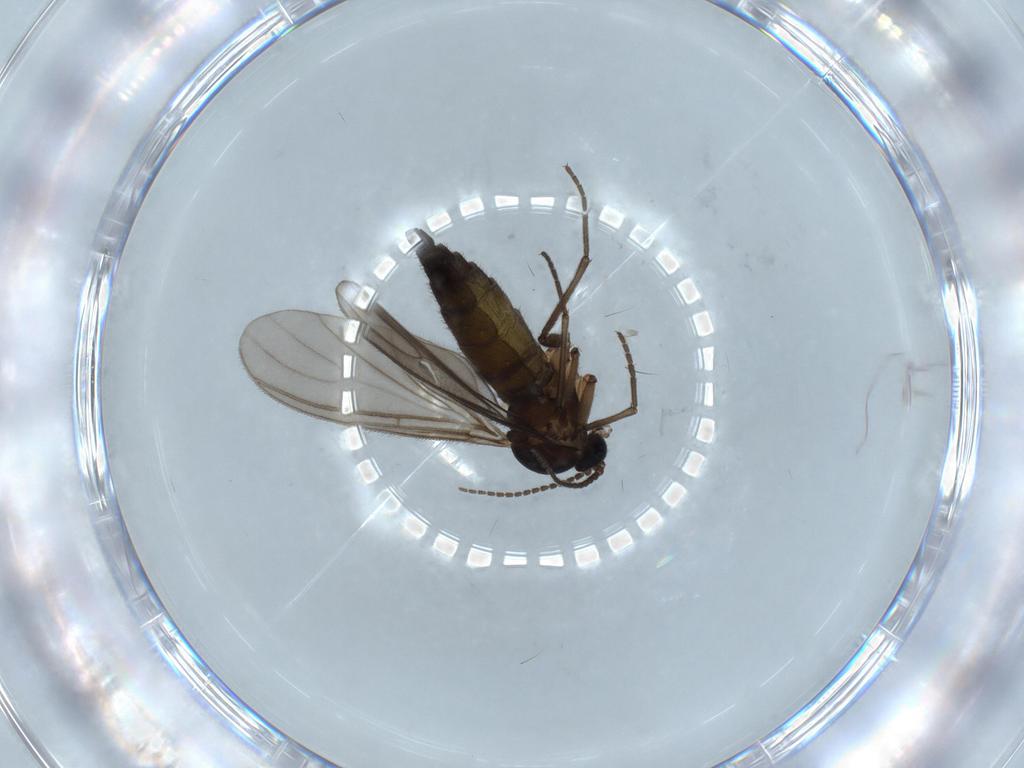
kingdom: Animalia
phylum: Arthropoda
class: Insecta
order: Diptera
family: Sciaridae
